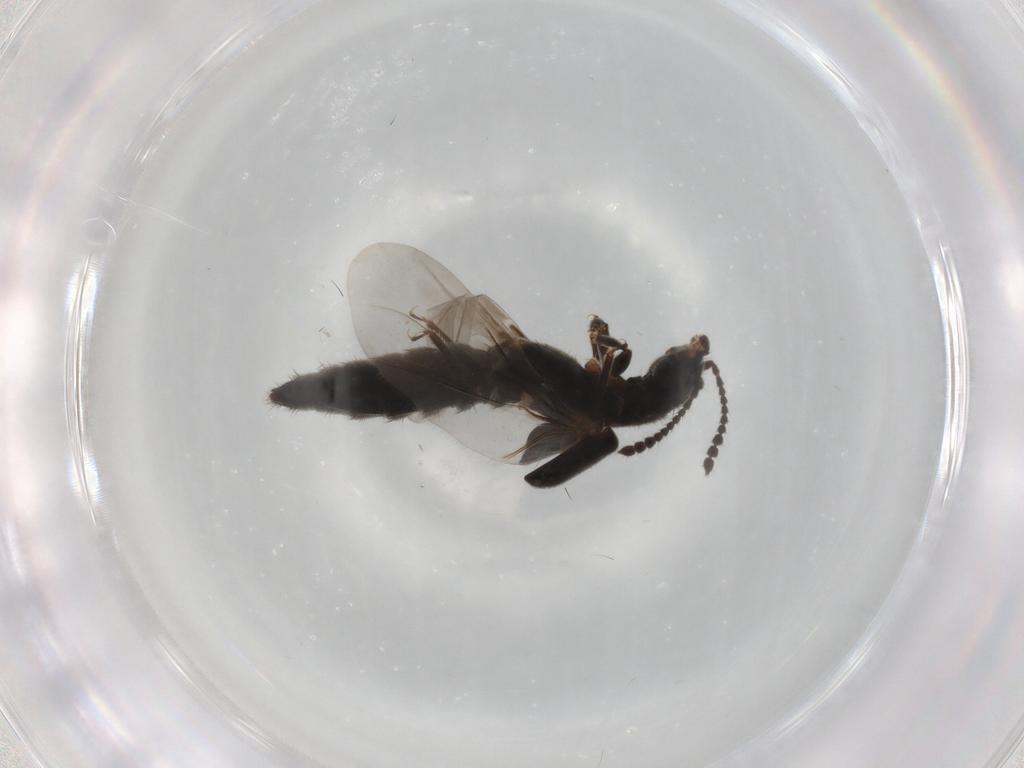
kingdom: Animalia
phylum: Arthropoda
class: Insecta
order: Coleoptera
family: Staphylinidae
